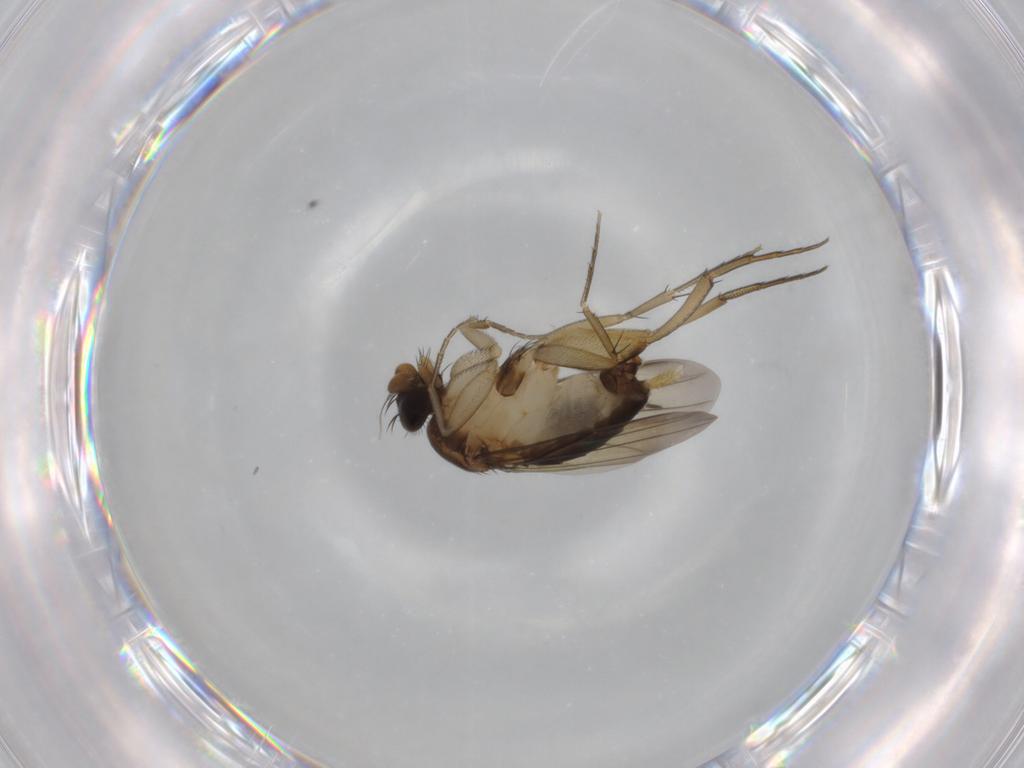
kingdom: Animalia
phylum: Arthropoda
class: Insecta
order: Diptera
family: Phoridae
